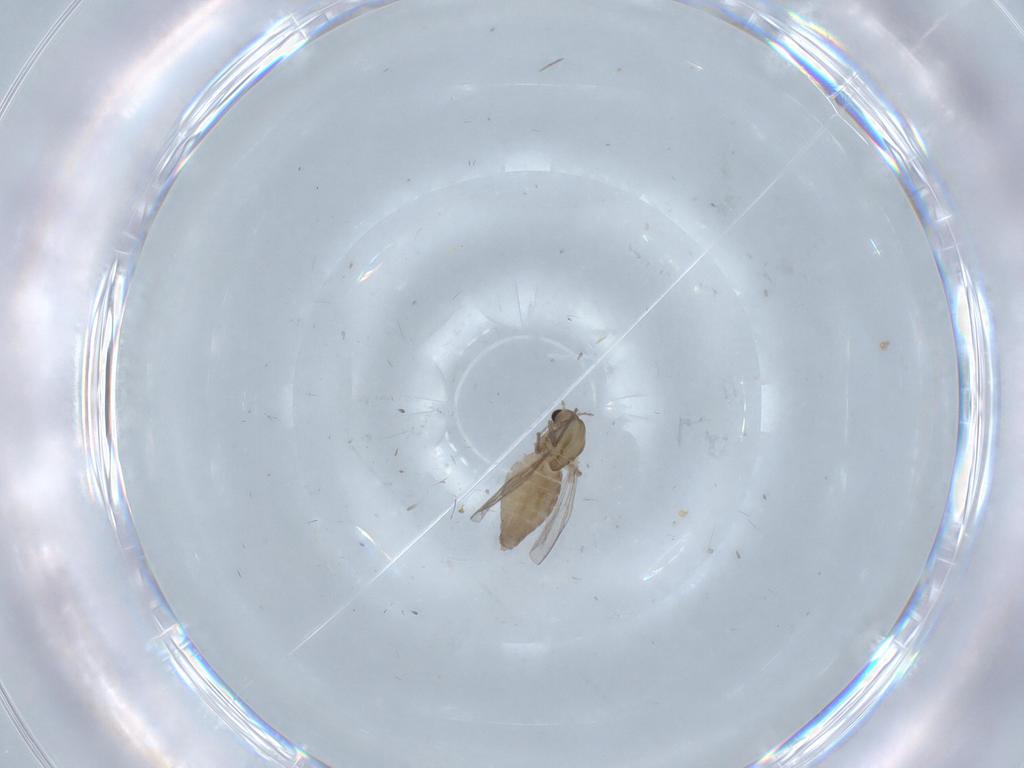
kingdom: Animalia
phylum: Arthropoda
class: Insecta
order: Diptera
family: Chironomidae
